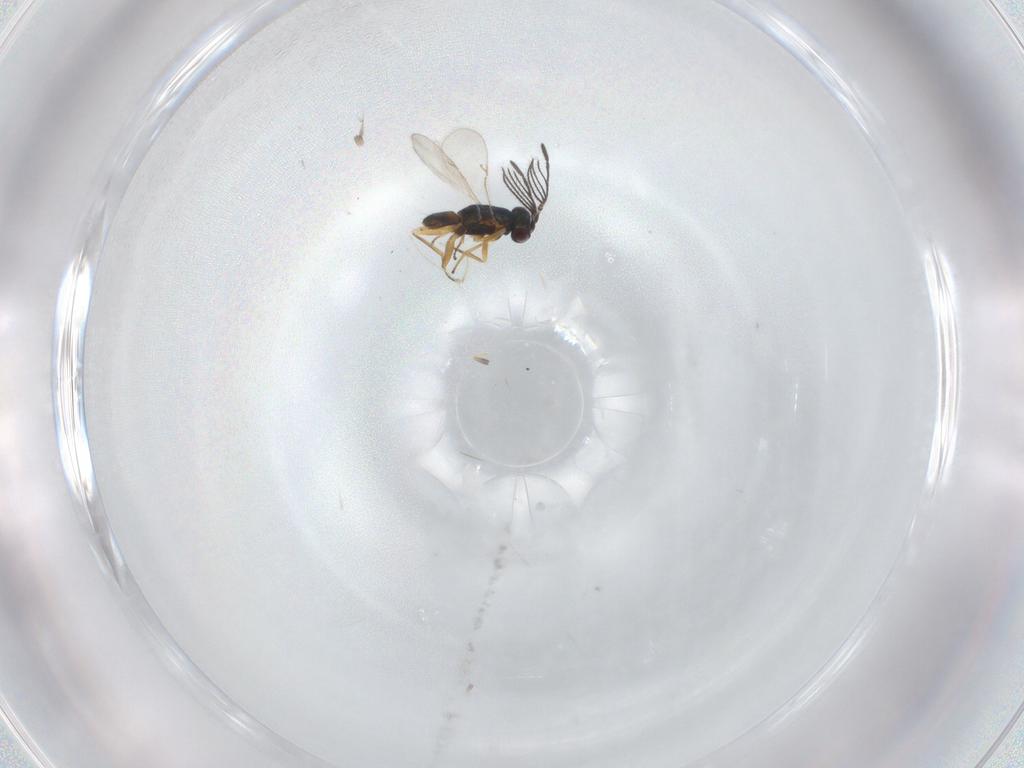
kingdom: Animalia
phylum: Arthropoda
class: Insecta
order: Hymenoptera
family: Encyrtidae
